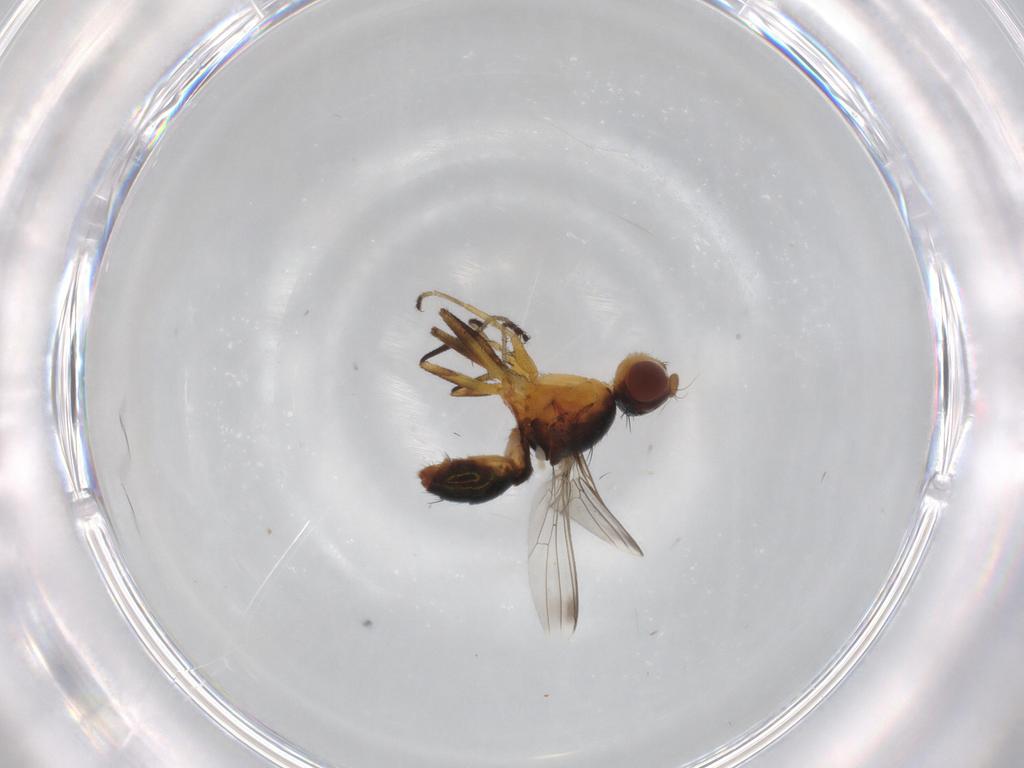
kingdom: Animalia
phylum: Arthropoda
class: Insecta
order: Diptera
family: Sepsidae
